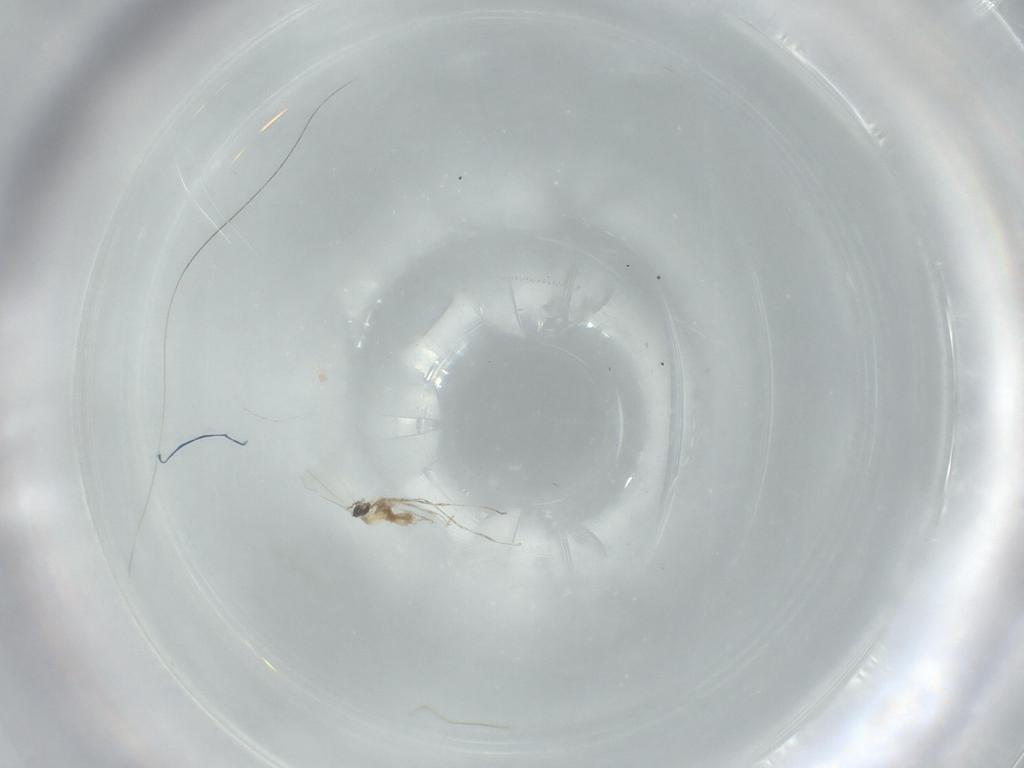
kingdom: Animalia
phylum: Arthropoda
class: Insecta
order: Diptera
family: Cecidomyiidae
